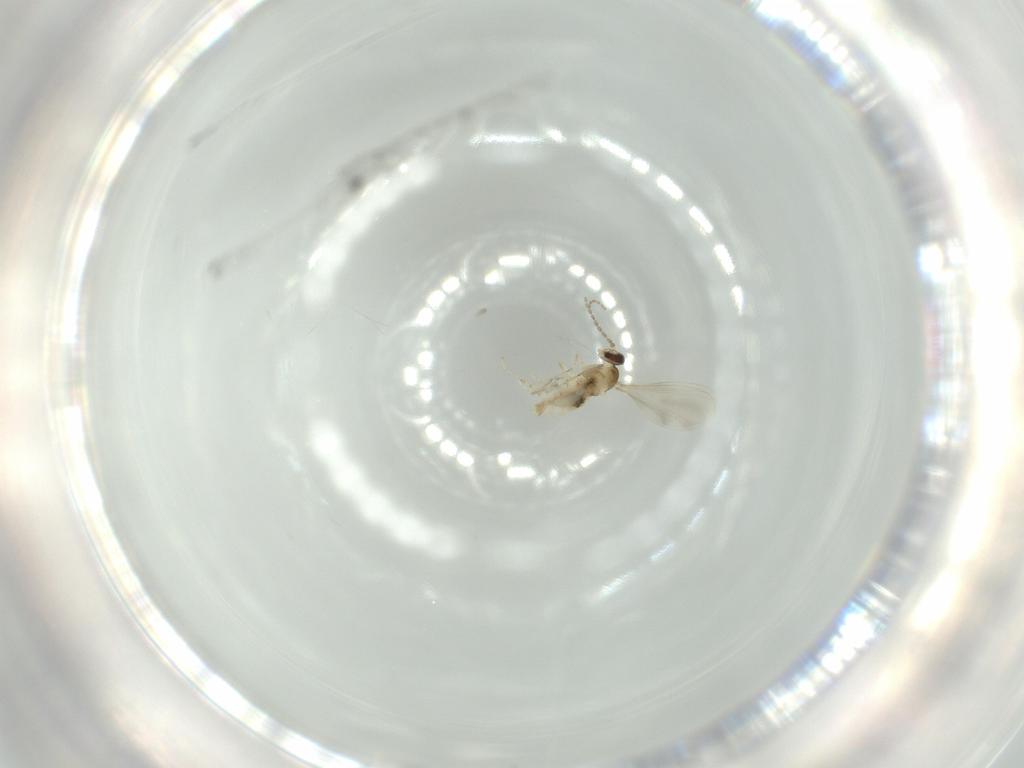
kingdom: Animalia
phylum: Arthropoda
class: Insecta
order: Diptera
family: Cecidomyiidae
